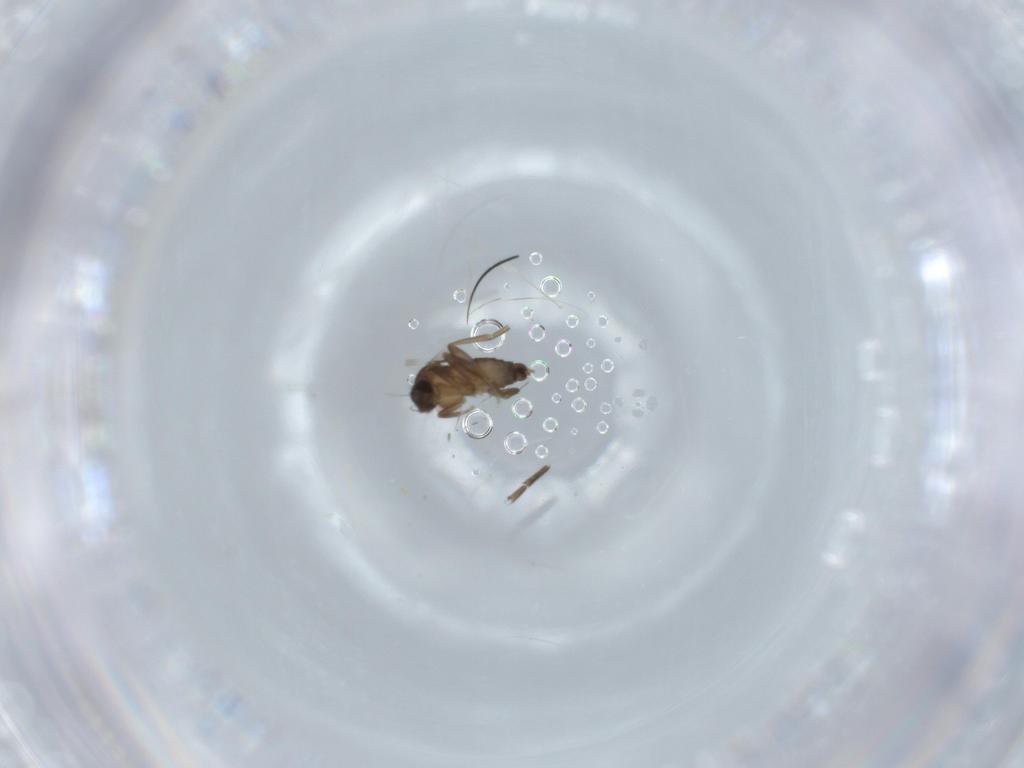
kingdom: Animalia
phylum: Arthropoda
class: Insecta
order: Diptera
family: Phoridae
